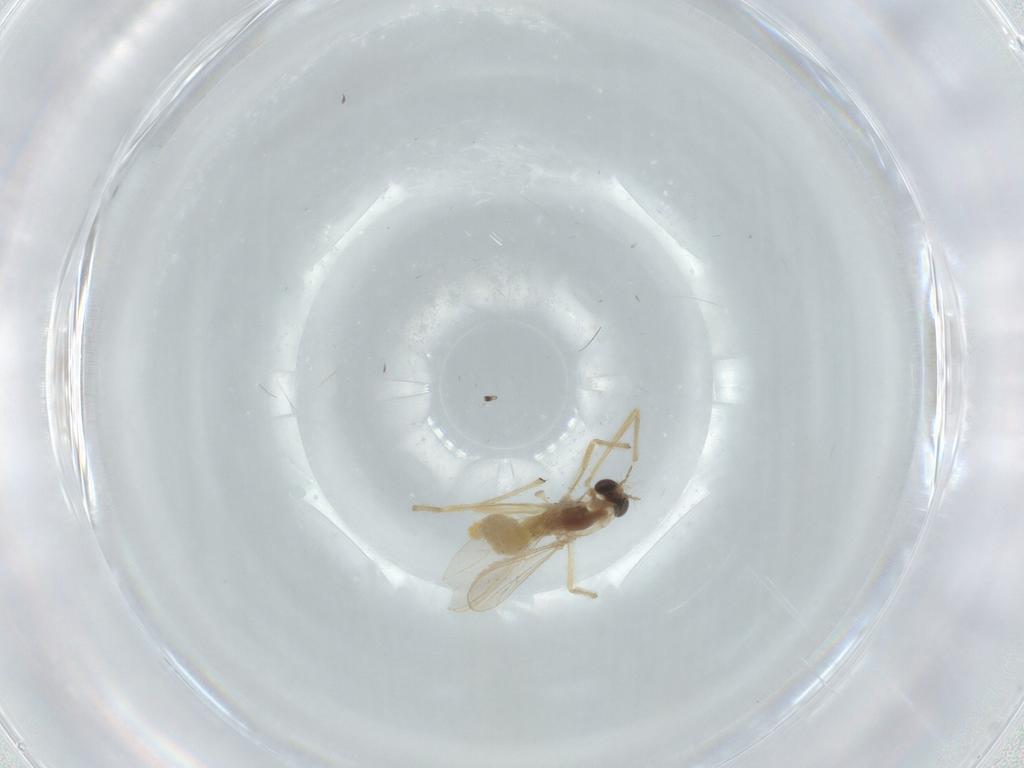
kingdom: Animalia
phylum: Arthropoda
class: Insecta
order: Diptera
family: Chironomidae
